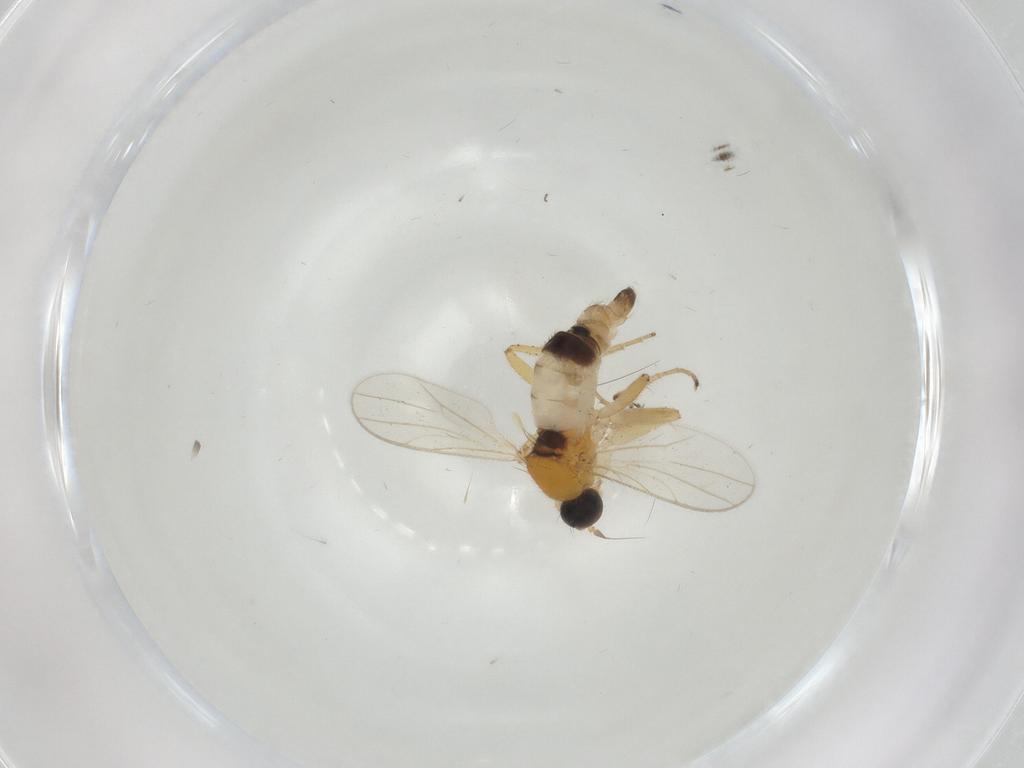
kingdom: Animalia
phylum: Arthropoda
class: Insecta
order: Diptera
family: Hybotidae
